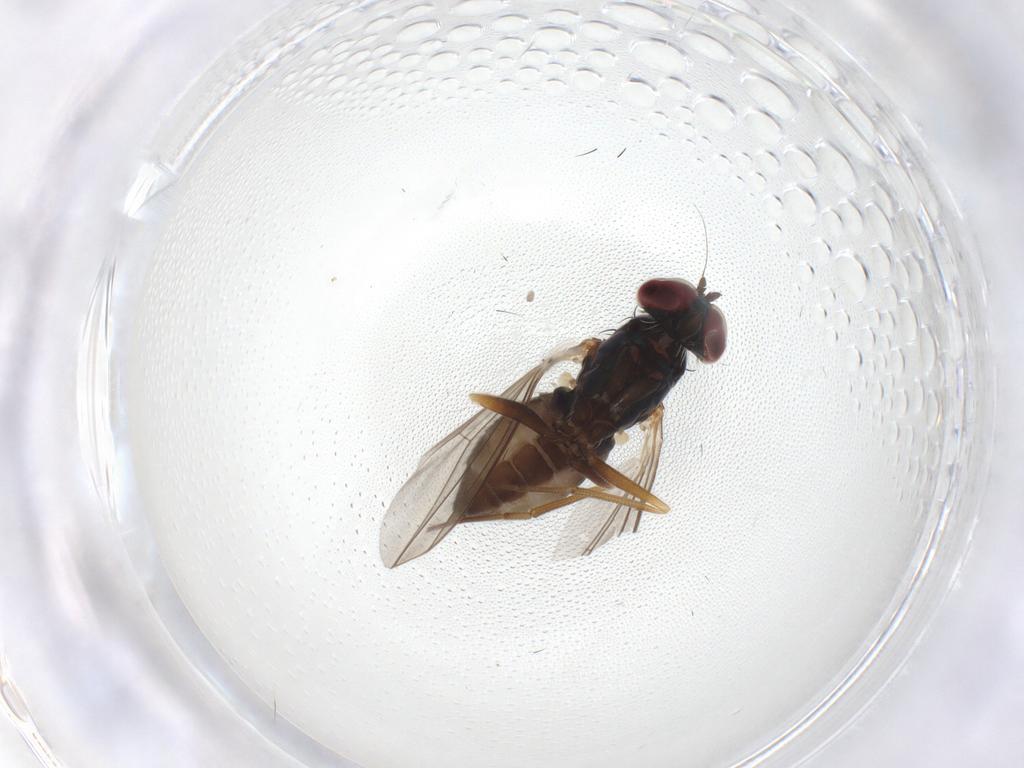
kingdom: Animalia
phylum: Arthropoda
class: Insecta
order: Diptera
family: Dolichopodidae
